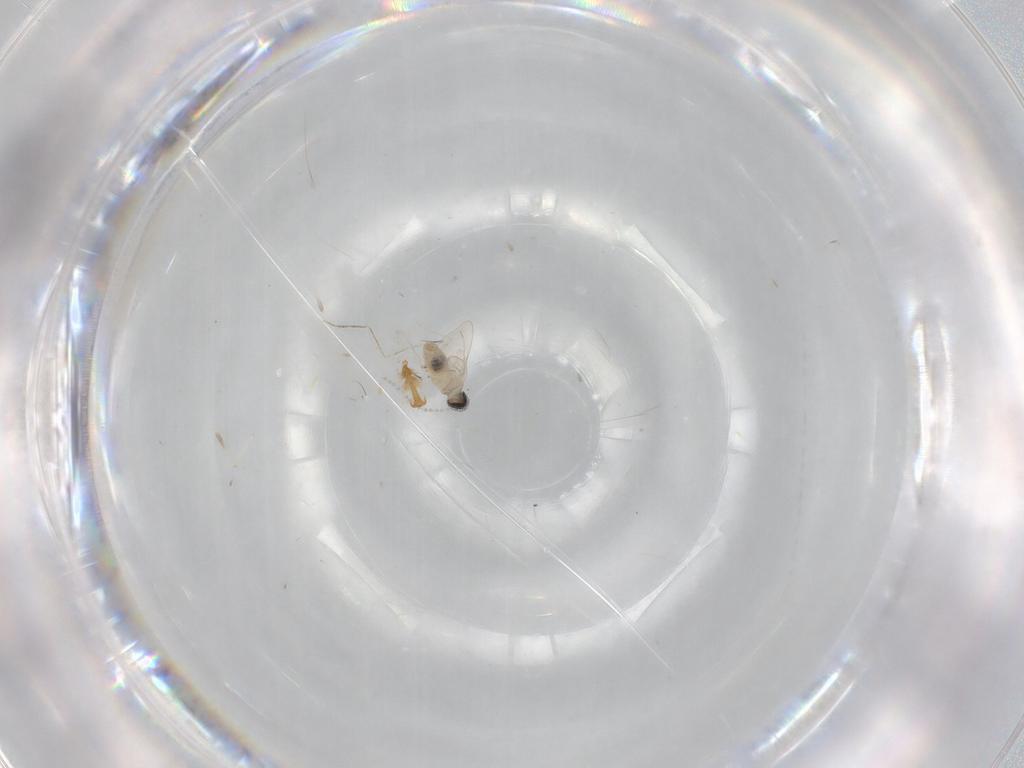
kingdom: Animalia
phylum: Arthropoda
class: Insecta
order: Diptera
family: Cecidomyiidae
